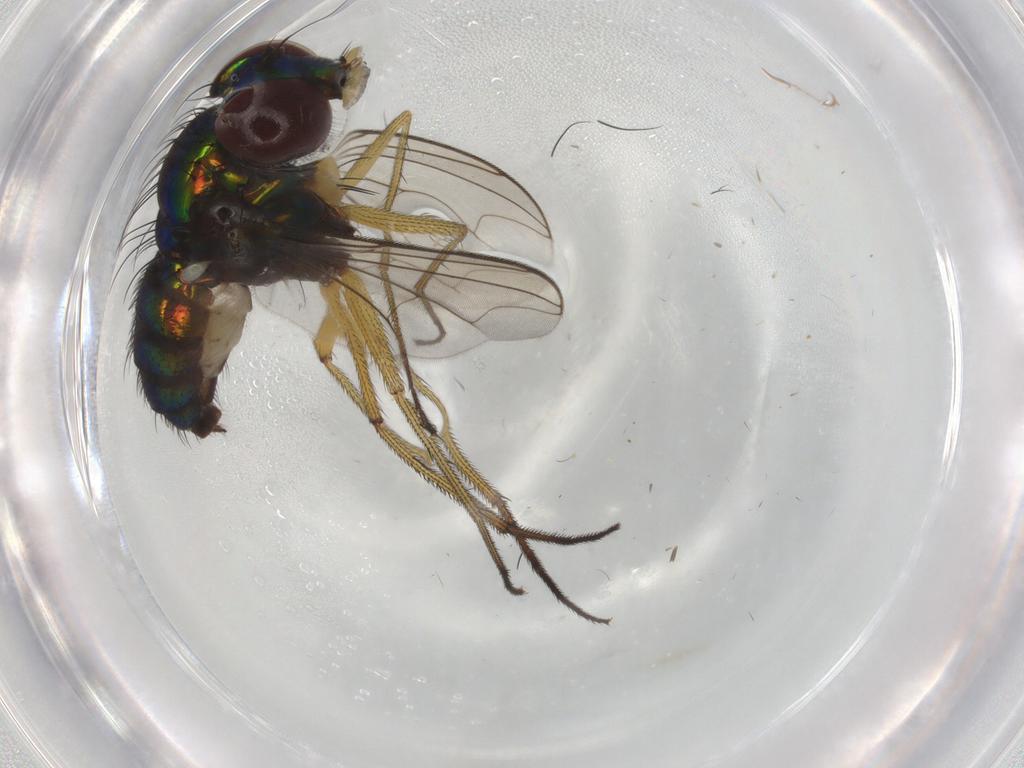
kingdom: Animalia
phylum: Arthropoda
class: Insecta
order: Diptera
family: Dolichopodidae
